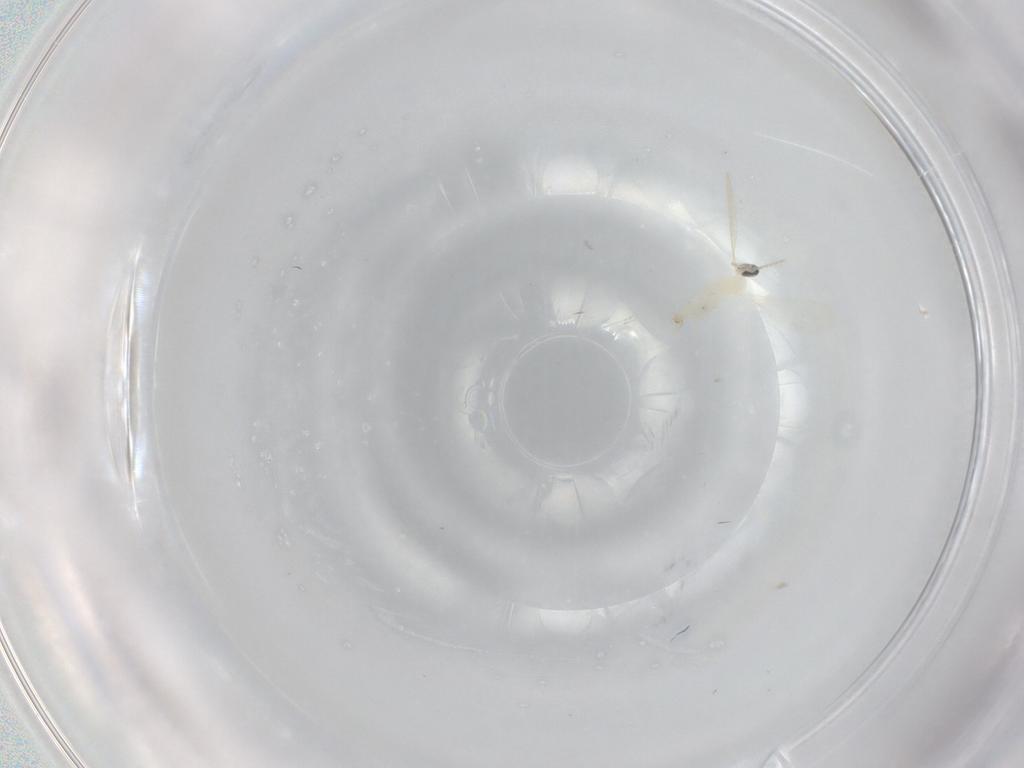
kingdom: Animalia
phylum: Arthropoda
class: Insecta
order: Diptera
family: Cecidomyiidae
